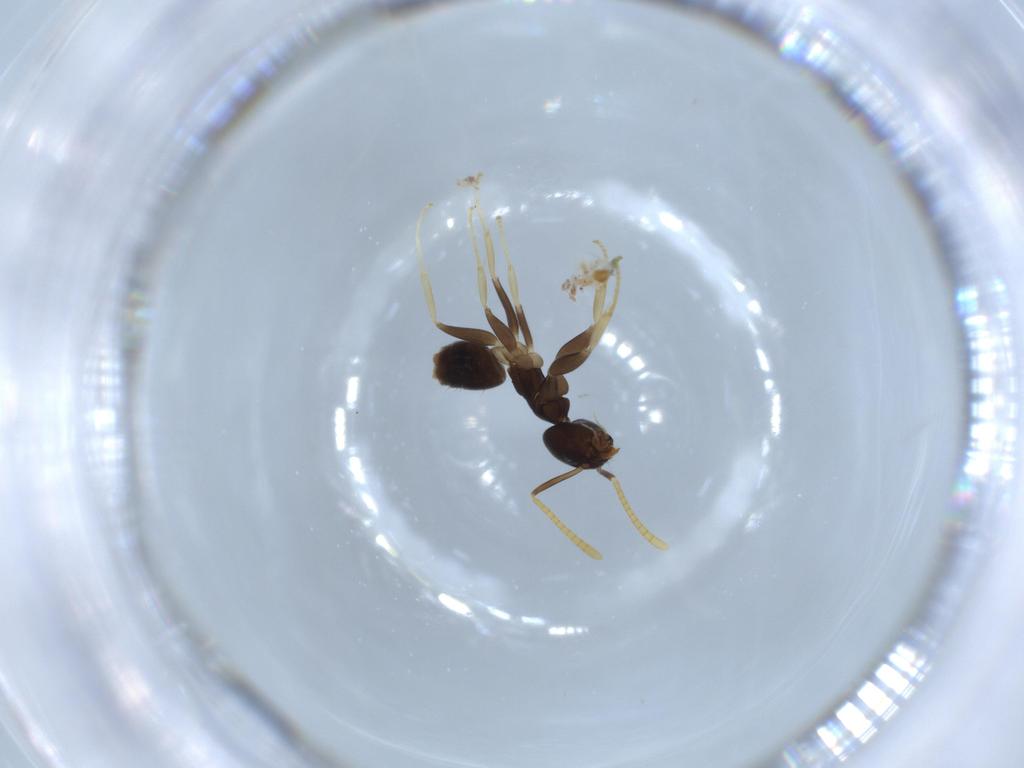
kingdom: Animalia
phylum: Arthropoda
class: Insecta
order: Hymenoptera
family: Formicidae
